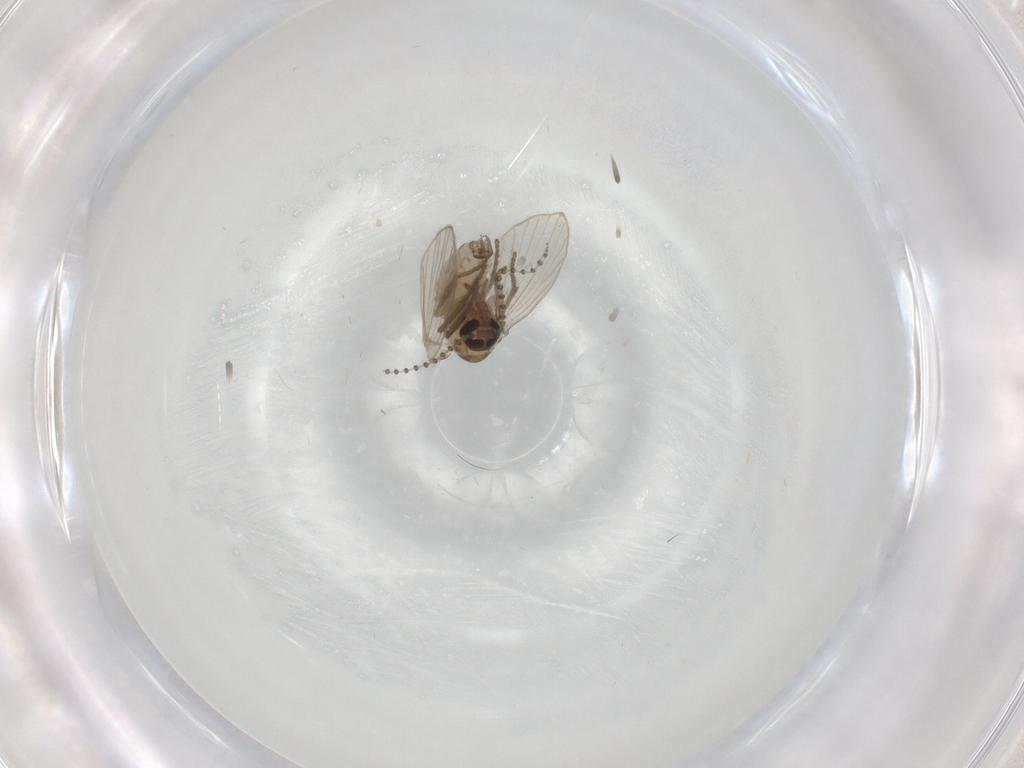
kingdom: Animalia
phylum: Arthropoda
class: Insecta
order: Diptera
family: Psychodidae
